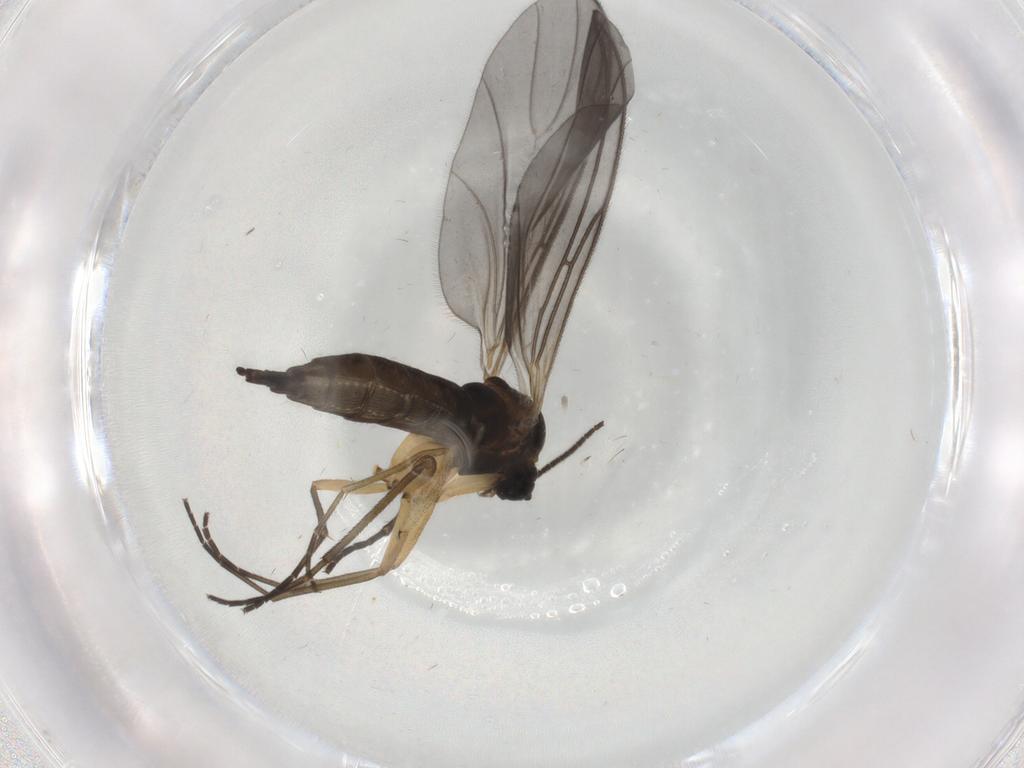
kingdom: Animalia
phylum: Arthropoda
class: Insecta
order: Diptera
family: Sciaridae
